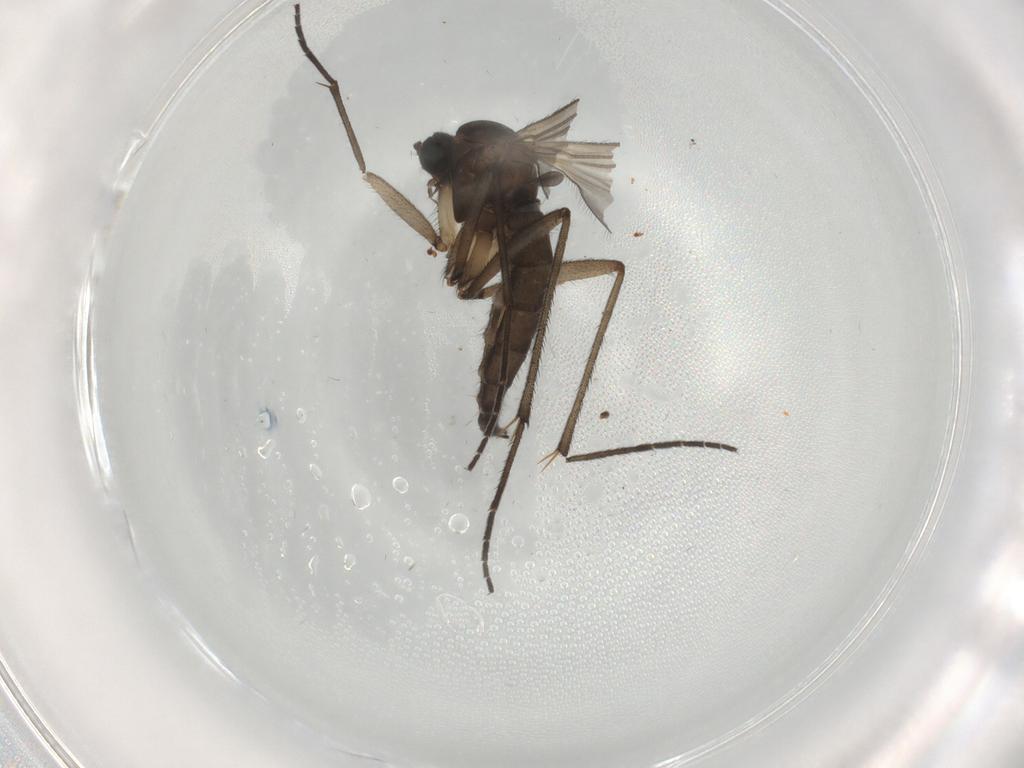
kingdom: Animalia
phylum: Arthropoda
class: Insecta
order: Diptera
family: Sciaridae
